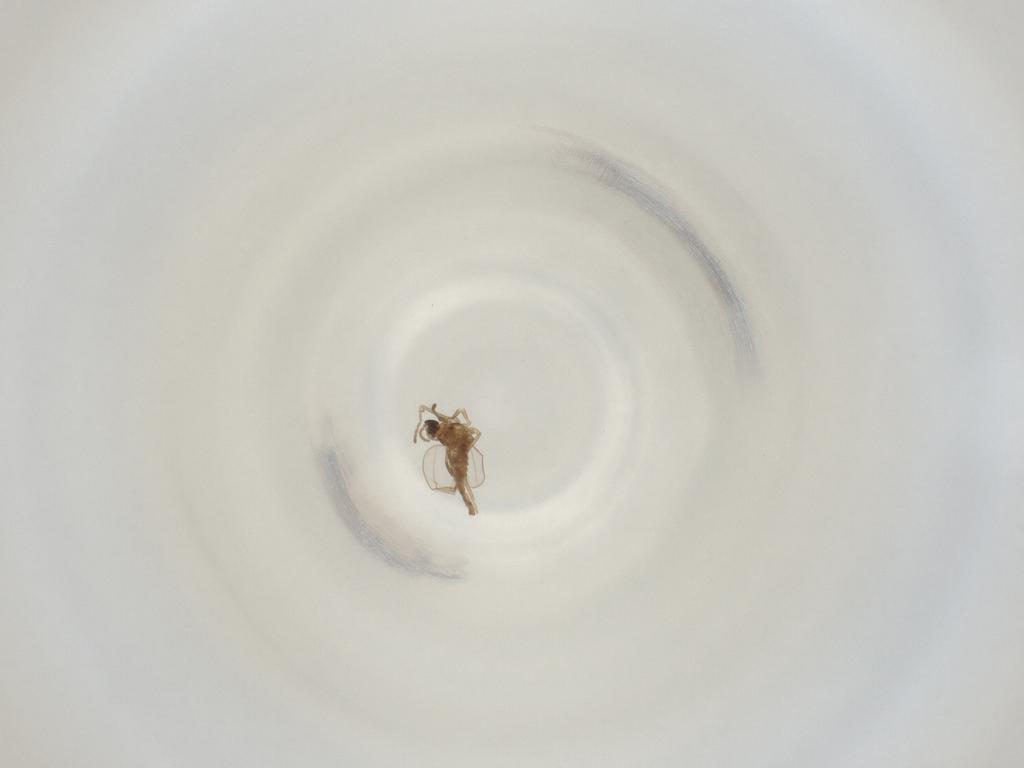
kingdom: Animalia
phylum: Arthropoda
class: Insecta
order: Diptera
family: Cecidomyiidae
